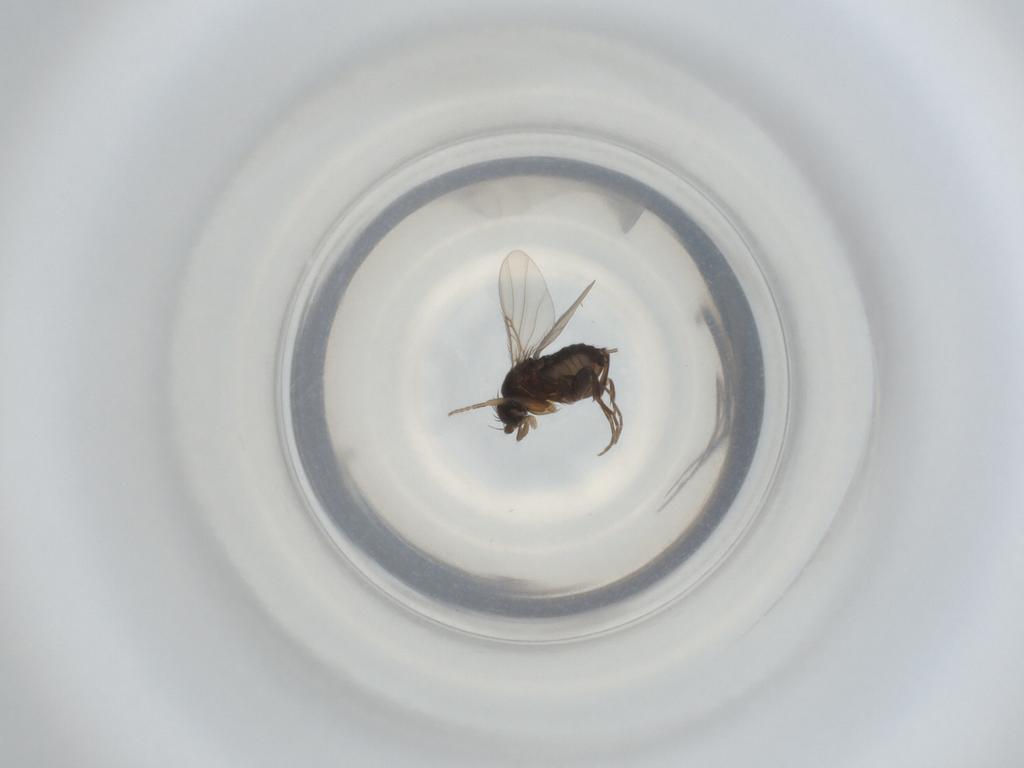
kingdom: Animalia
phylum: Arthropoda
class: Insecta
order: Diptera
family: Phoridae
